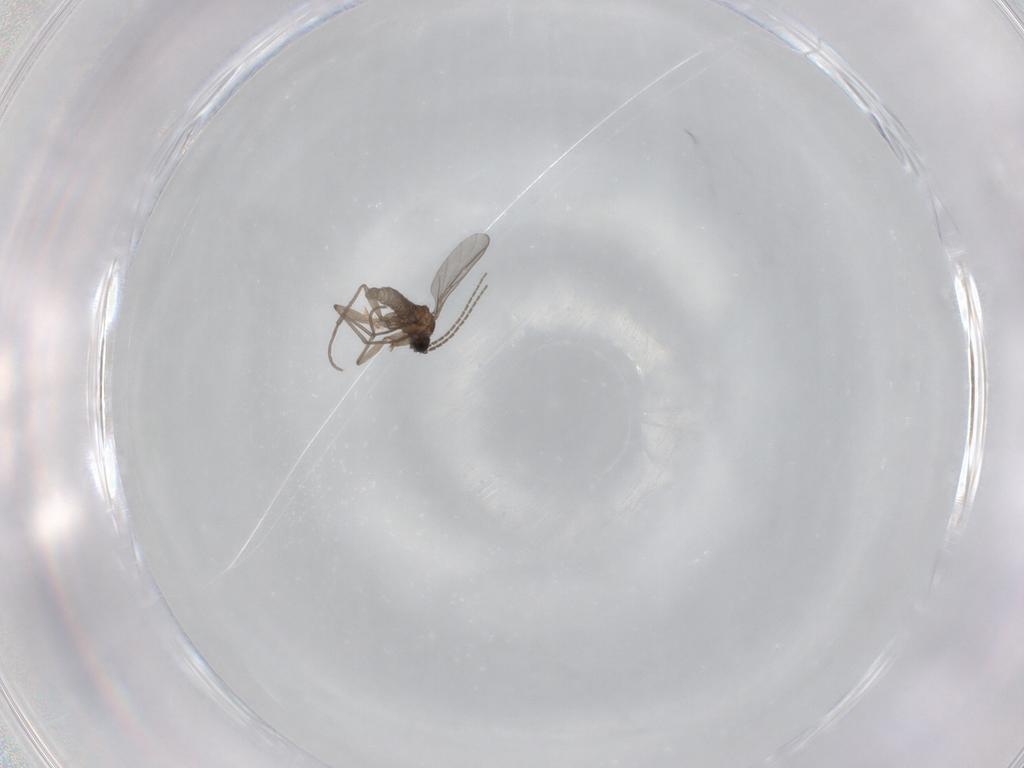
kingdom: Animalia
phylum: Arthropoda
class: Insecta
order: Diptera
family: Sciaridae
